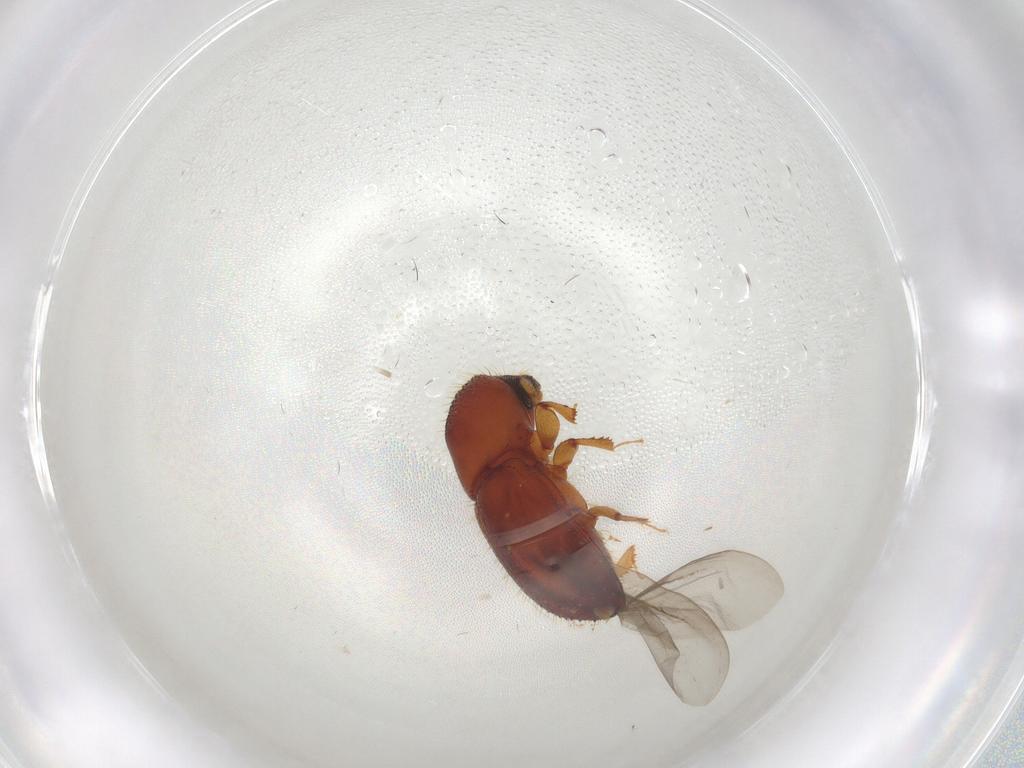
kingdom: Animalia
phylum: Arthropoda
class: Insecta
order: Coleoptera
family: Curculionidae
